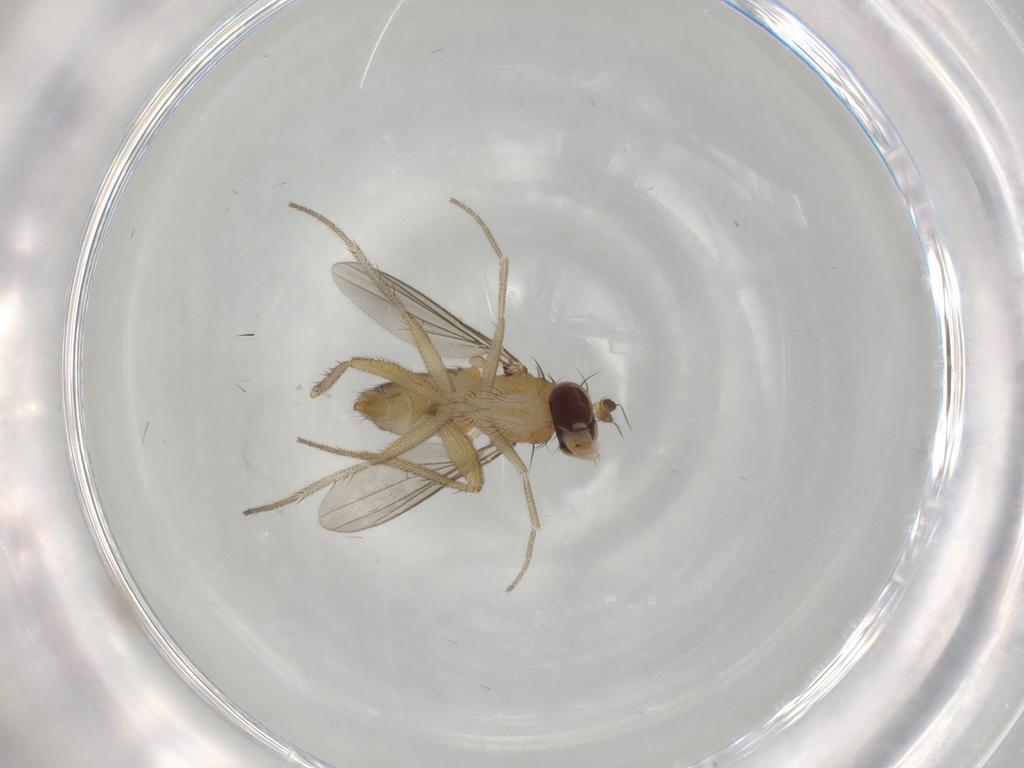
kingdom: Animalia
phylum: Arthropoda
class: Insecta
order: Diptera
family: Dolichopodidae
